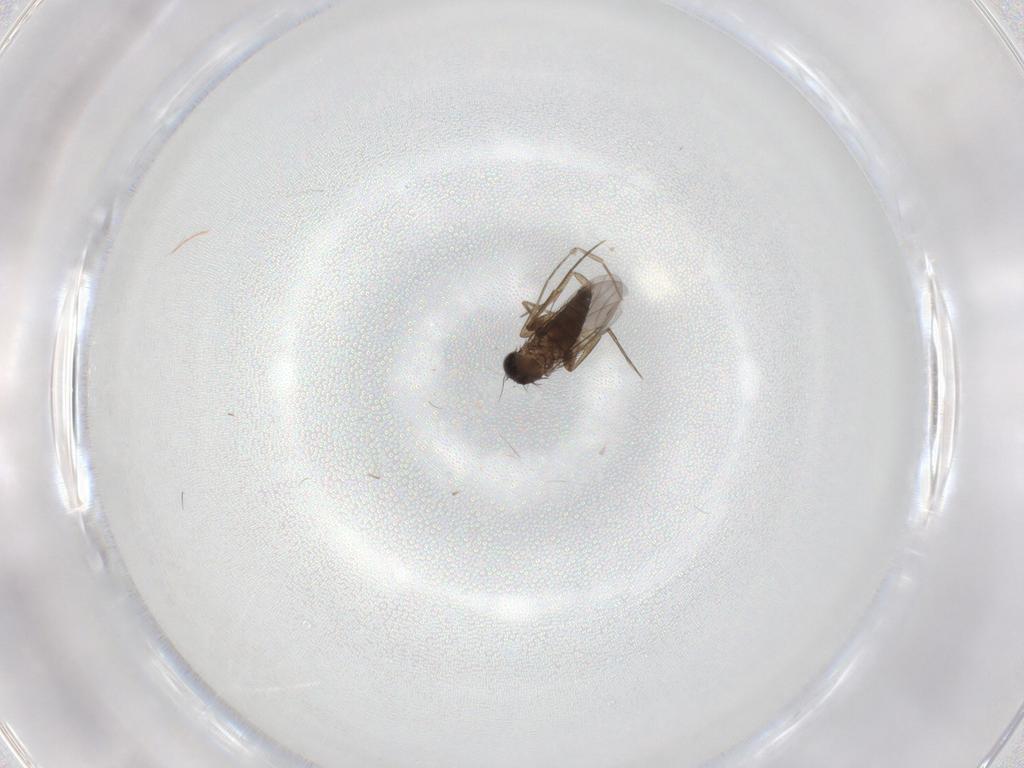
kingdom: Animalia
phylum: Arthropoda
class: Insecta
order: Diptera
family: Phoridae
